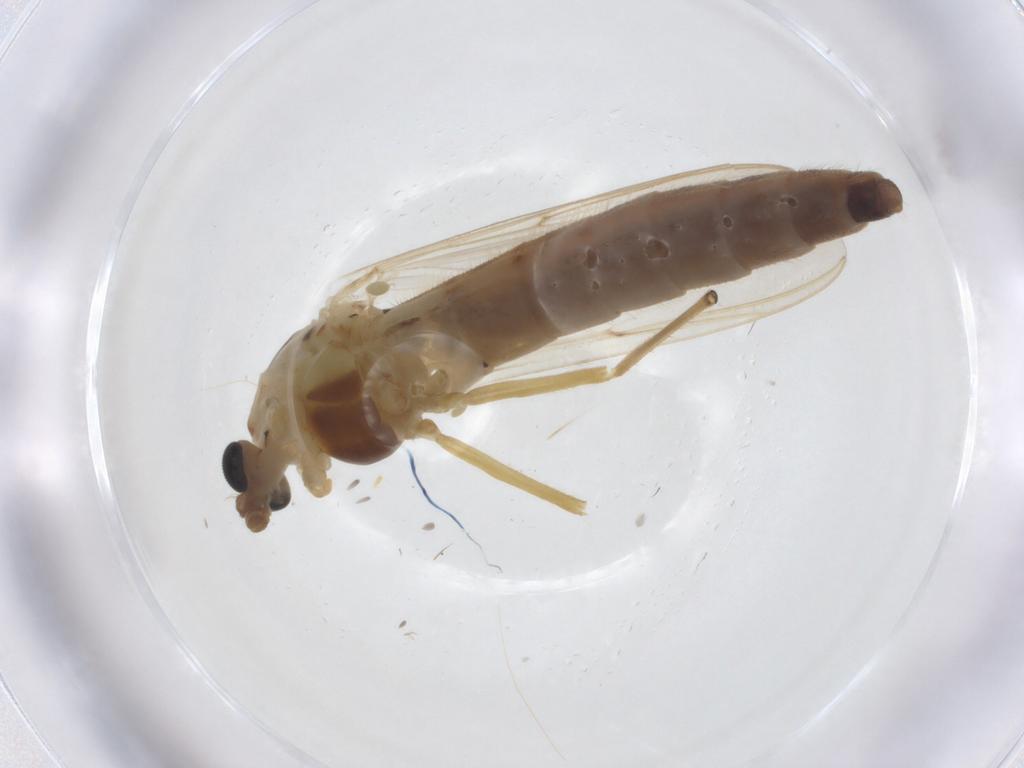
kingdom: Animalia
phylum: Arthropoda
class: Insecta
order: Diptera
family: Chironomidae
